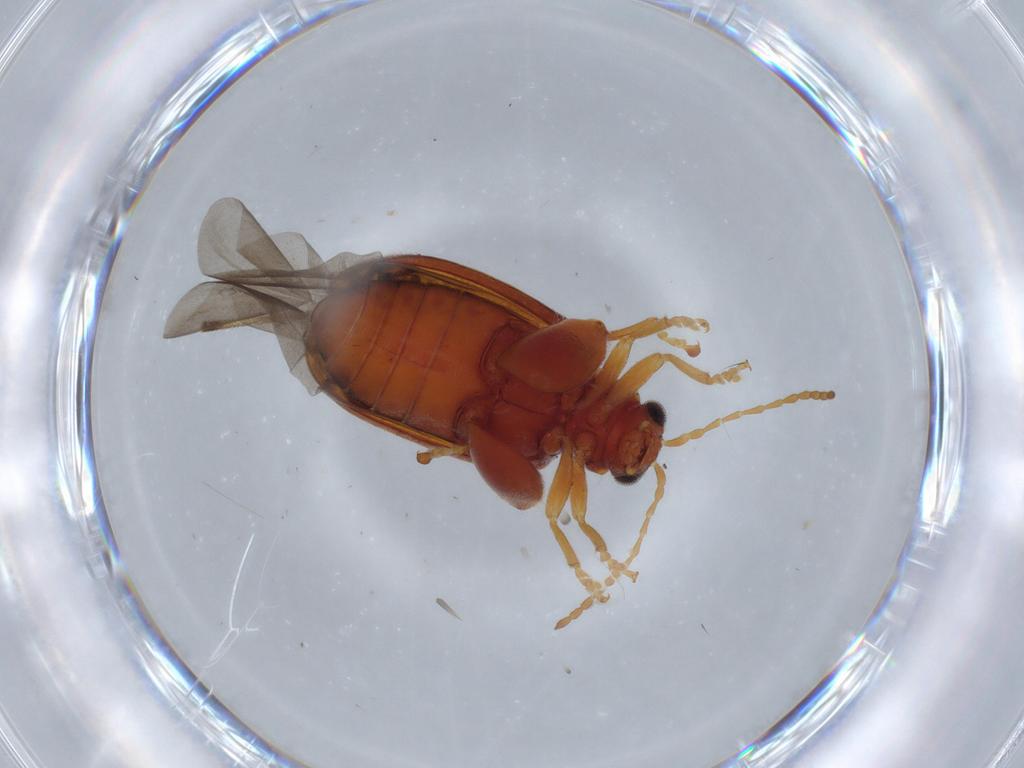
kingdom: Animalia
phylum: Arthropoda
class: Insecta
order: Coleoptera
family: Chrysomelidae
